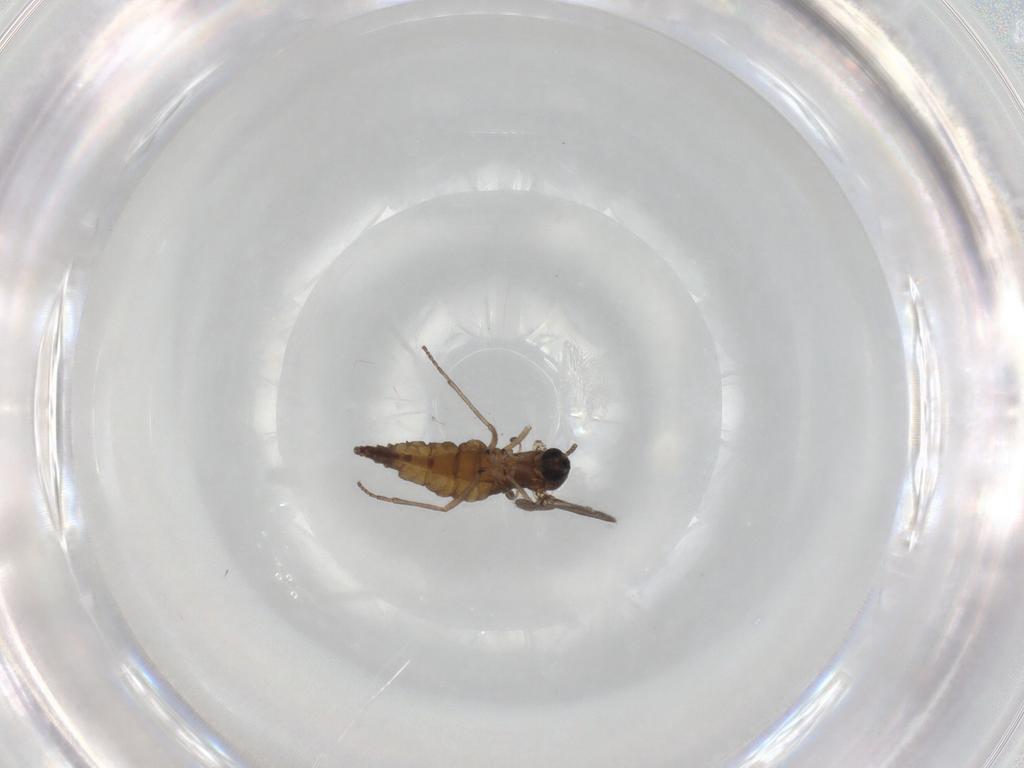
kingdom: Animalia
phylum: Arthropoda
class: Insecta
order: Diptera
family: Sciaridae
